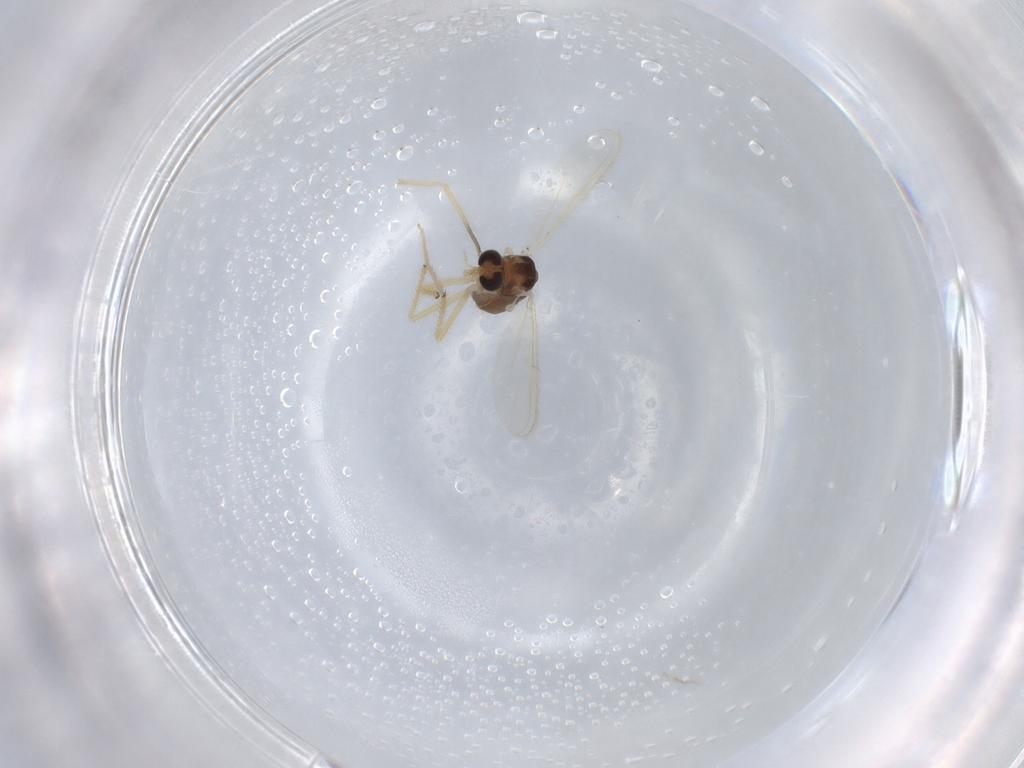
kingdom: Animalia
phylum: Arthropoda
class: Insecta
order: Diptera
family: Chironomidae
